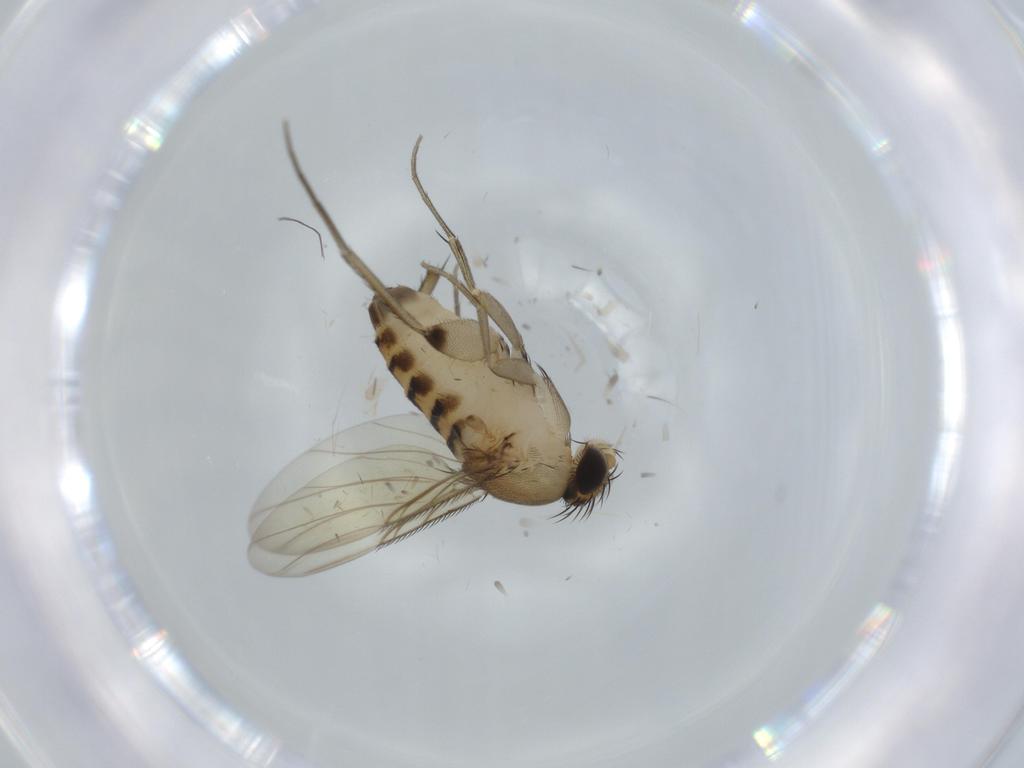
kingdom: Animalia
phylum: Arthropoda
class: Insecta
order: Diptera
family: Phoridae
